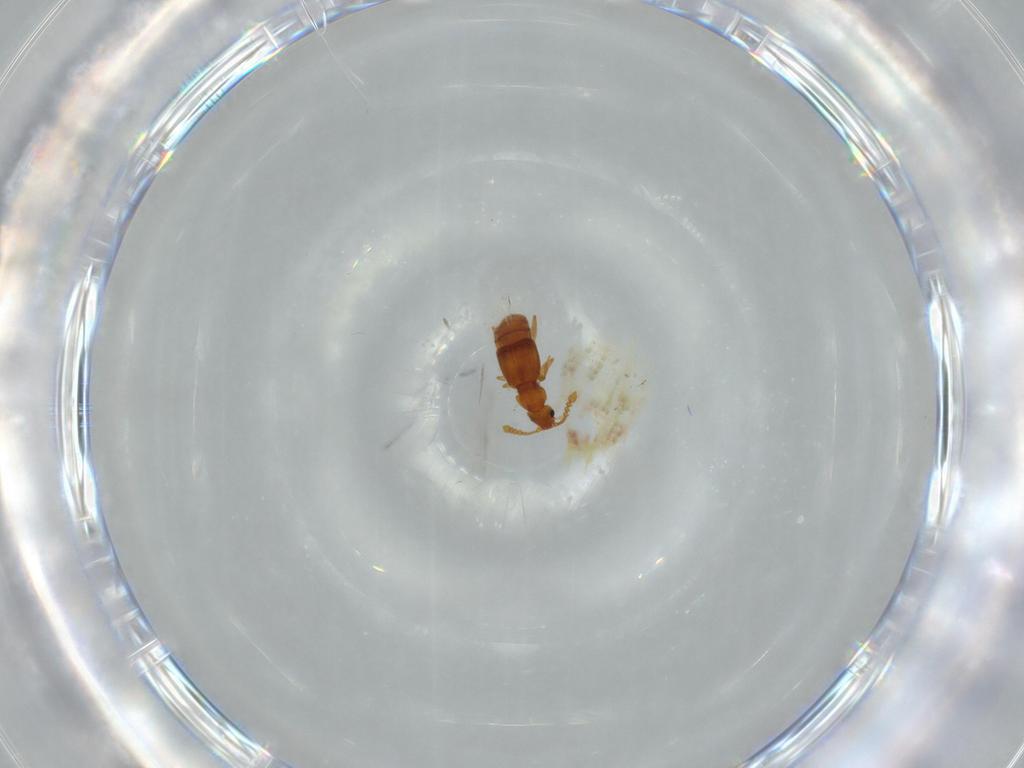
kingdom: Animalia
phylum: Arthropoda
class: Insecta
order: Coleoptera
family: Staphylinidae
